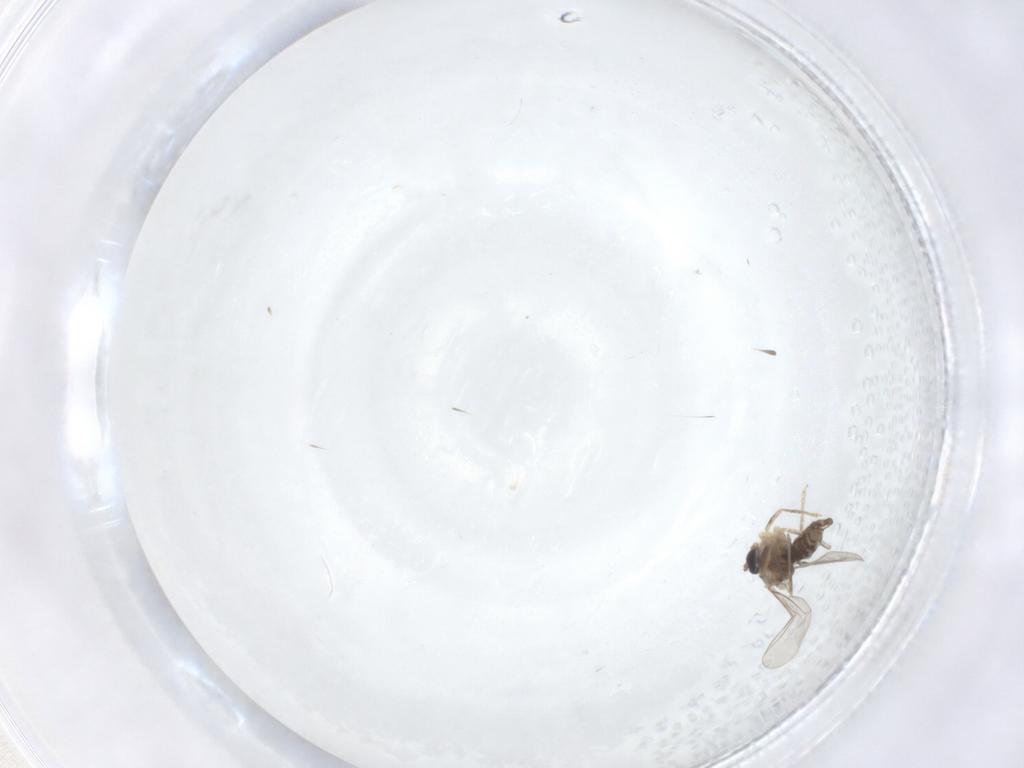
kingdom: Animalia
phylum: Arthropoda
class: Insecta
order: Diptera
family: Cecidomyiidae
